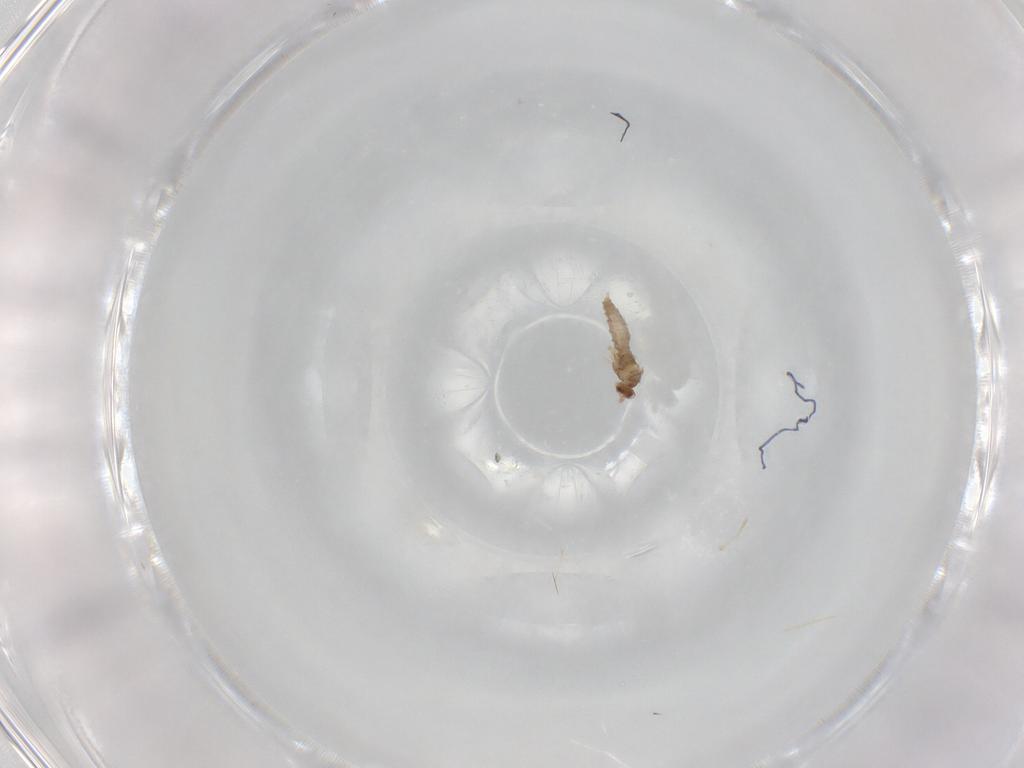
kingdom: Animalia
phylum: Arthropoda
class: Insecta
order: Diptera
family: Cecidomyiidae
